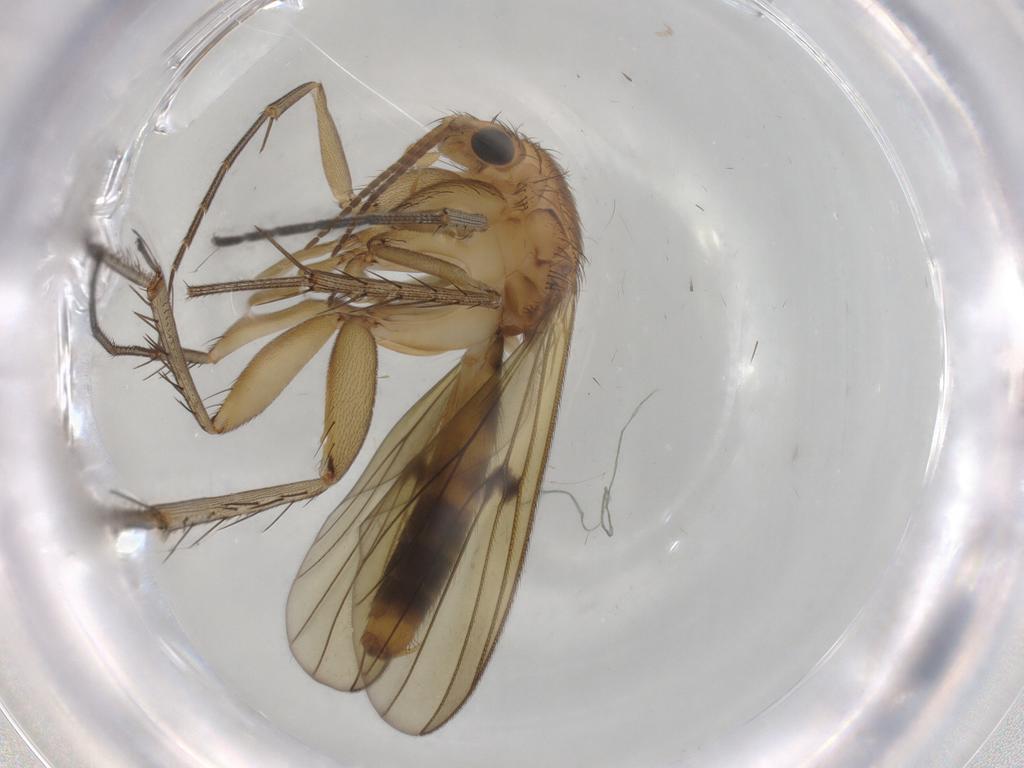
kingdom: Animalia
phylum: Arthropoda
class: Insecta
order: Diptera
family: Mycetophilidae
